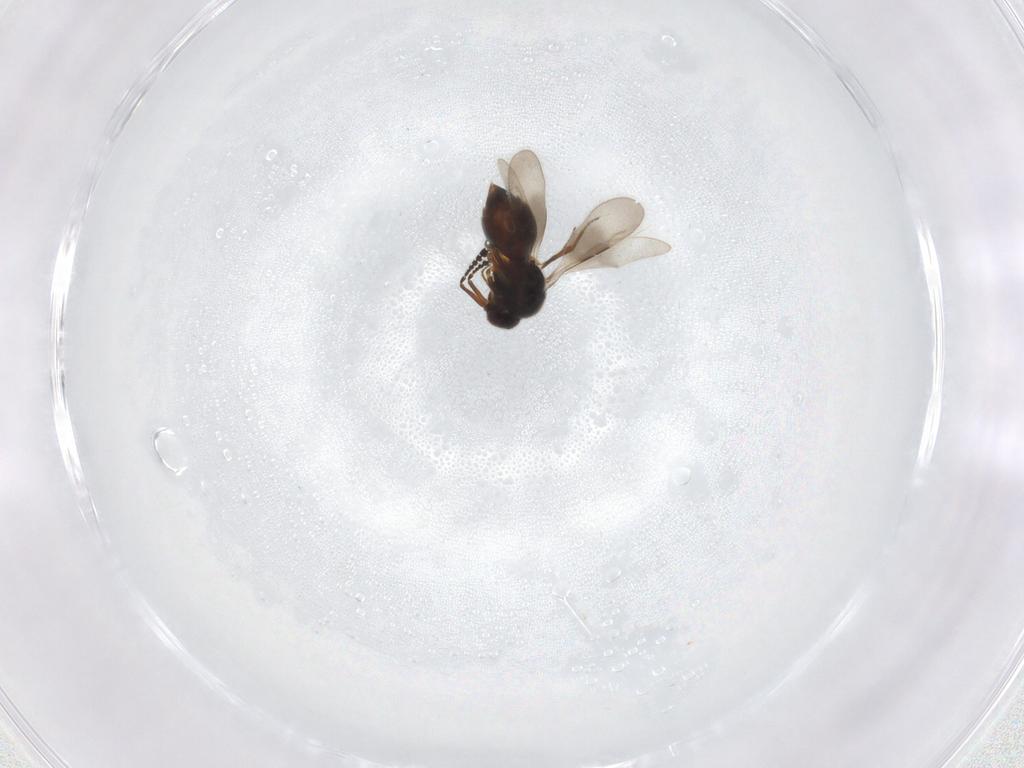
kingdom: Animalia
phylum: Arthropoda
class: Insecta
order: Hymenoptera
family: Ceraphronidae
